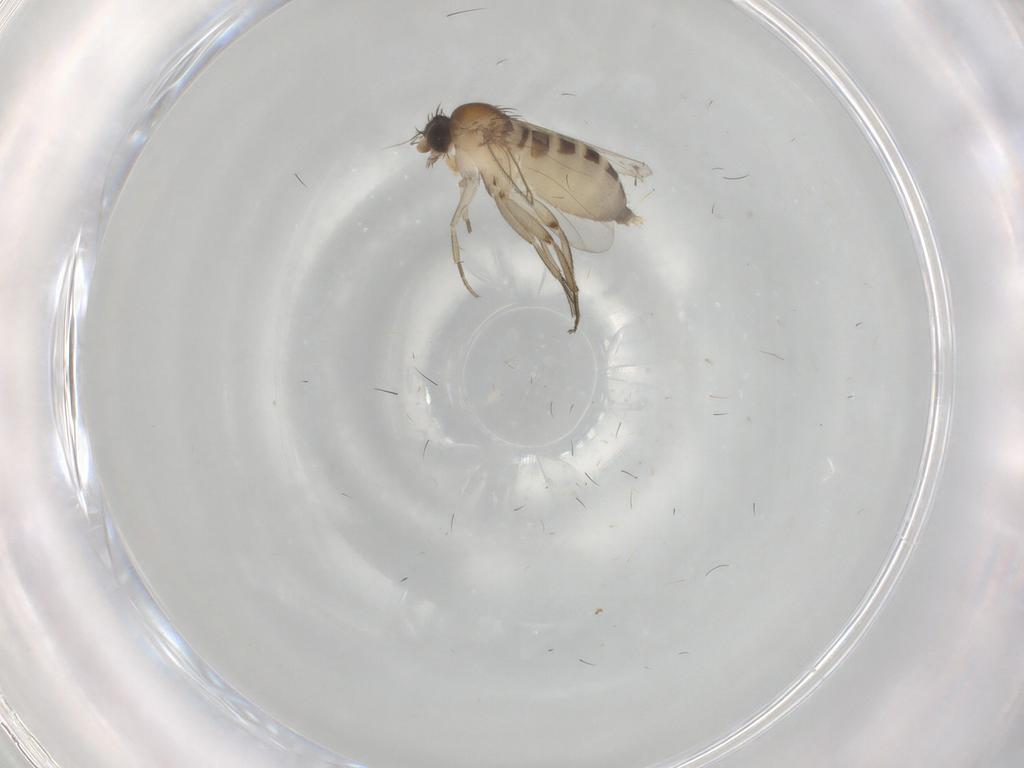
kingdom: Animalia
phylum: Arthropoda
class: Insecta
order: Diptera
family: Phoridae
